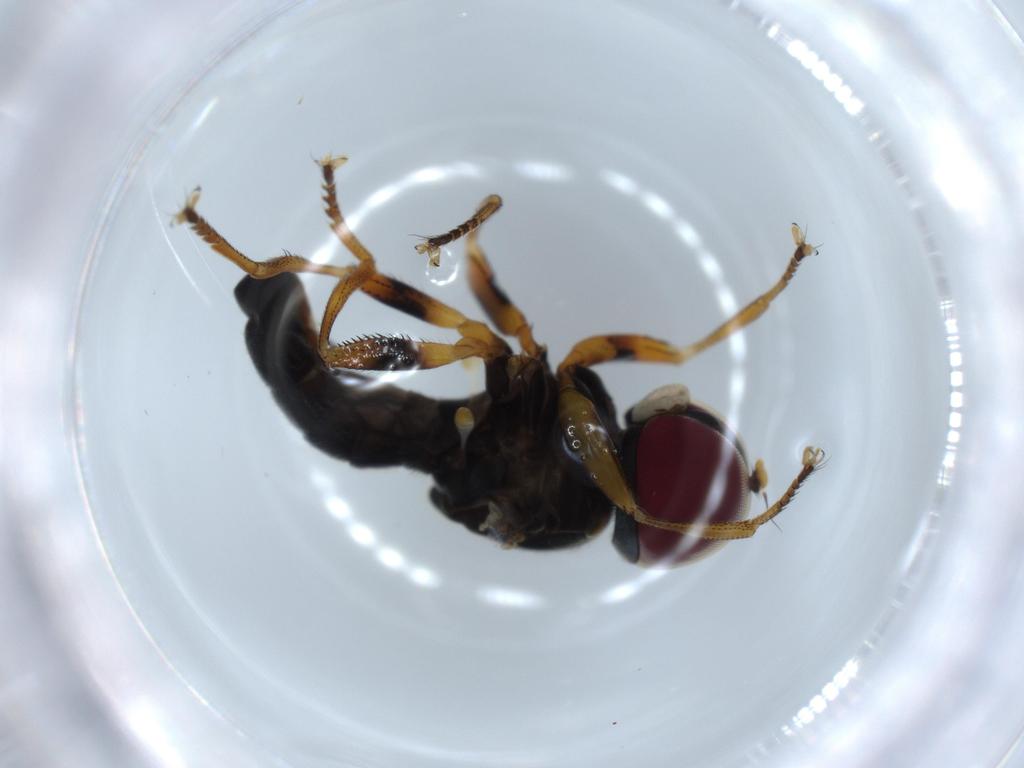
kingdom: Animalia
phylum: Arthropoda
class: Insecta
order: Diptera
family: Pipunculidae
